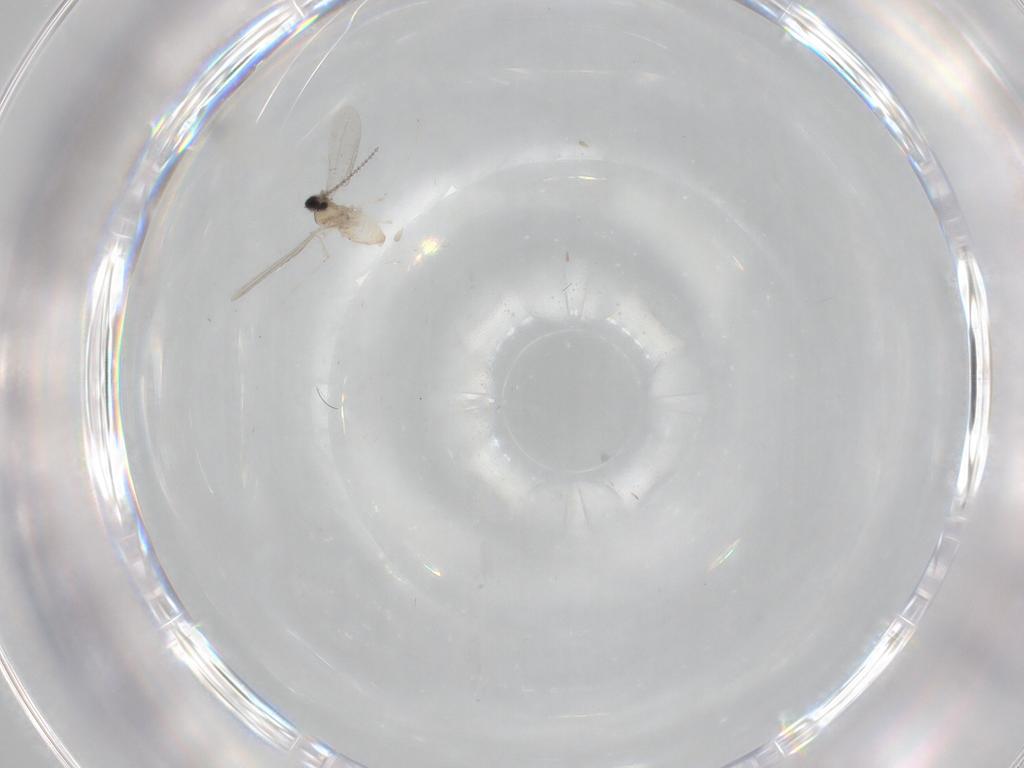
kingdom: Animalia
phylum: Arthropoda
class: Insecta
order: Diptera
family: Cecidomyiidae
